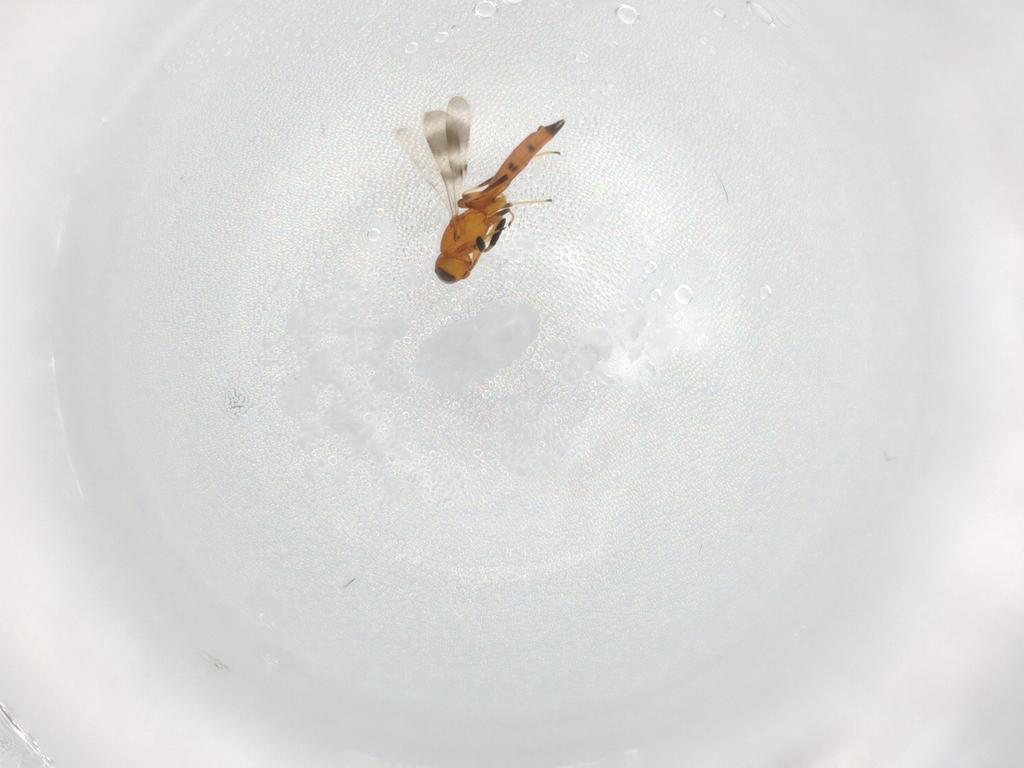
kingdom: Animalia
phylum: Arthropoda
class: Insecta
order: Hymenoptera
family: Scelionidae
